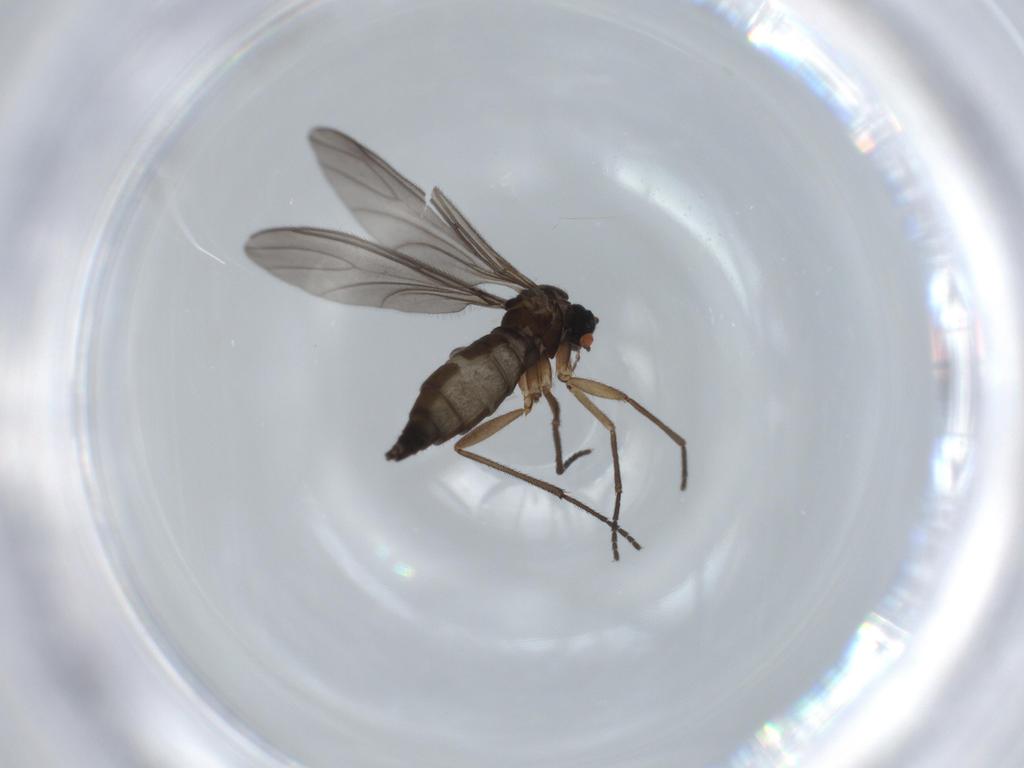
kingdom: Animalia
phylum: Arthropoda
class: Insecta
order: Diptera
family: Sciaridae
